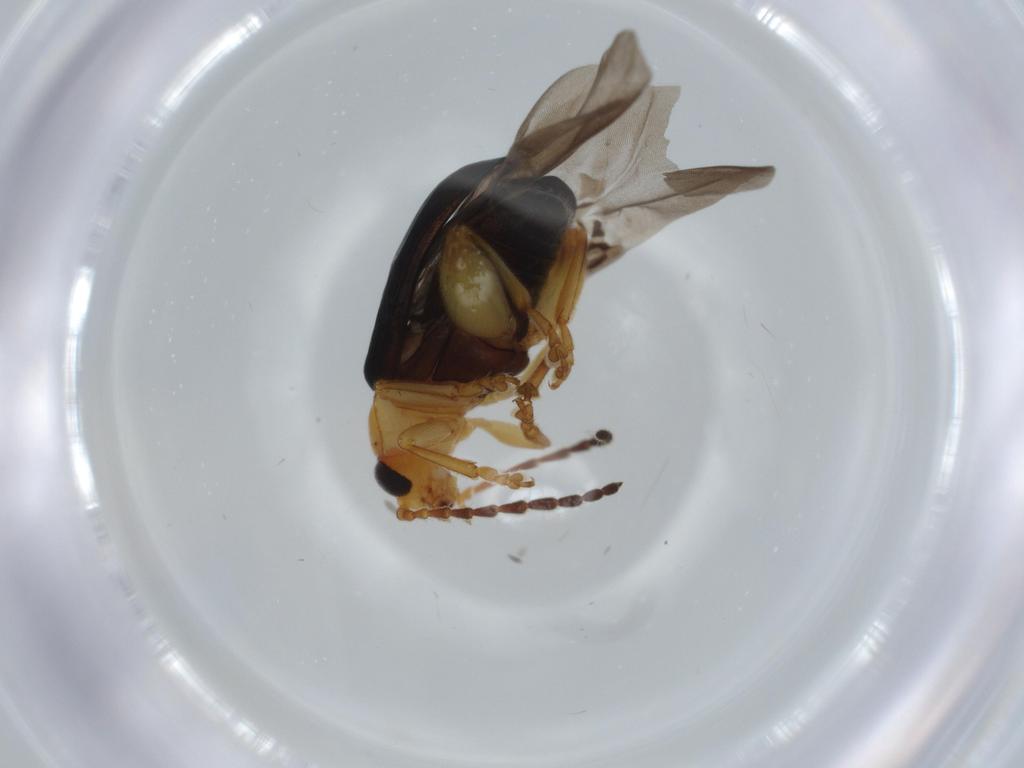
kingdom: Animalia
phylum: Arthropoda
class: Insecta
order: Coleoptera
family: Chrysomelidae
